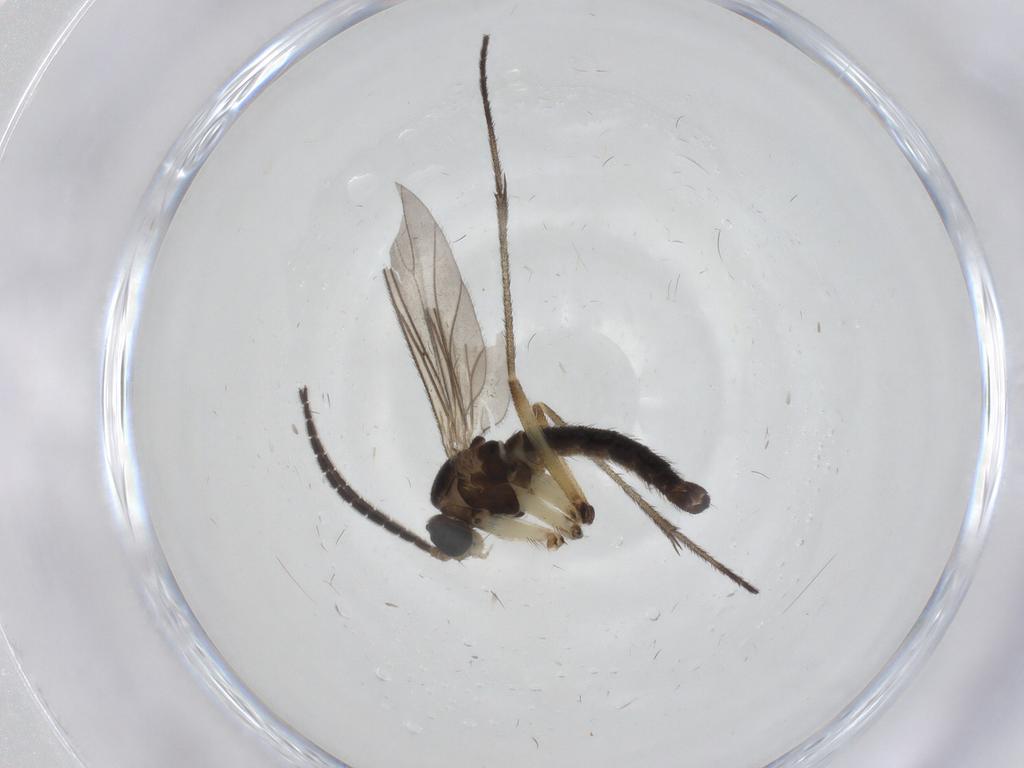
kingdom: Animalia
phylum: Arthropoda
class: Insecta
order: Diptera
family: Sciaridae
